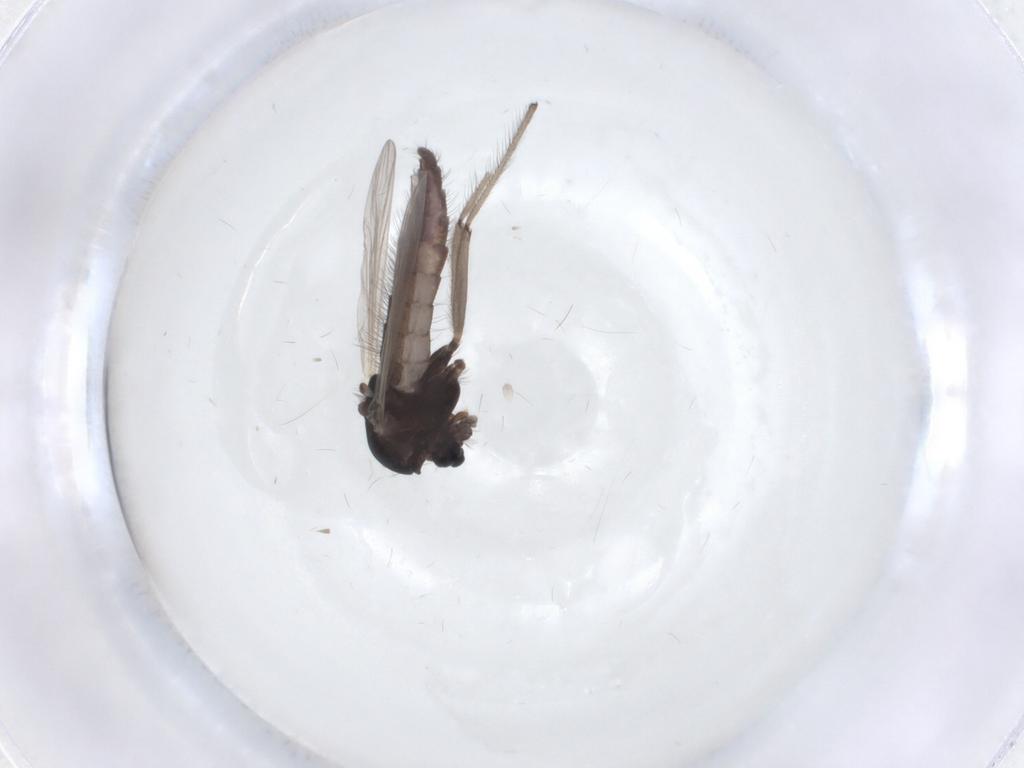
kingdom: Animalia
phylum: Arthropoda
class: Insecta
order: Diptera
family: Chironomidae
